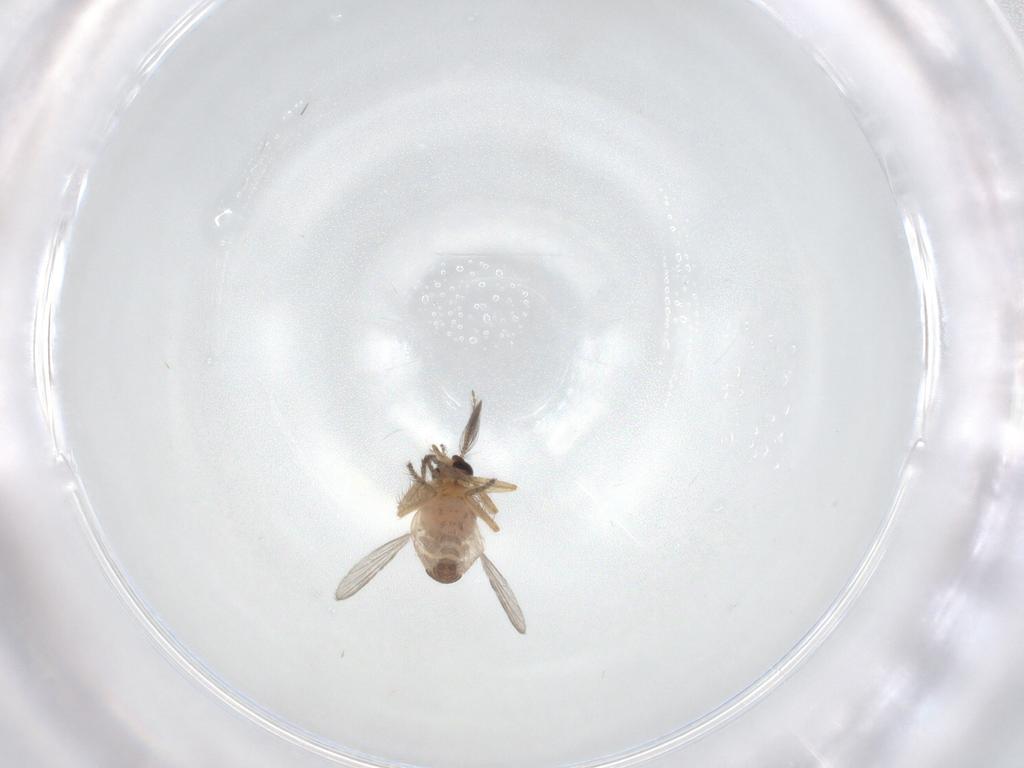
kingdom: Animalia
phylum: Arthropoda
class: Insecta
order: Diptera
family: Ceratopogonidae
